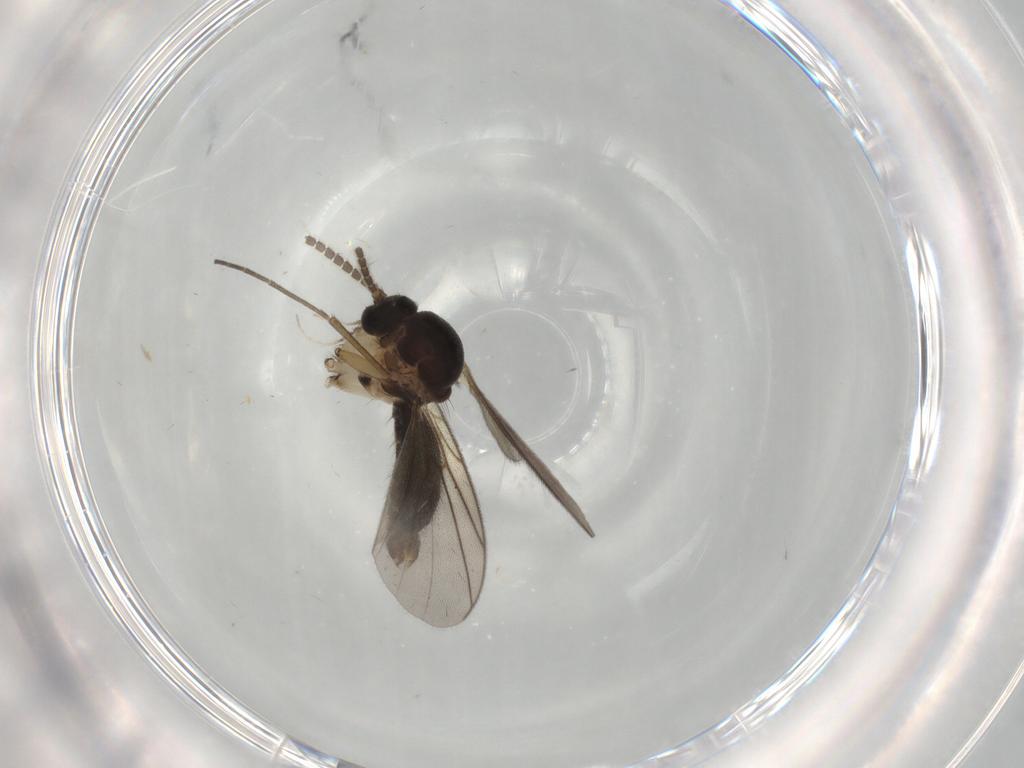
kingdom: Animalia
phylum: Arthropoda
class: Insecta
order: Diptera
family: Mycetophilidae
